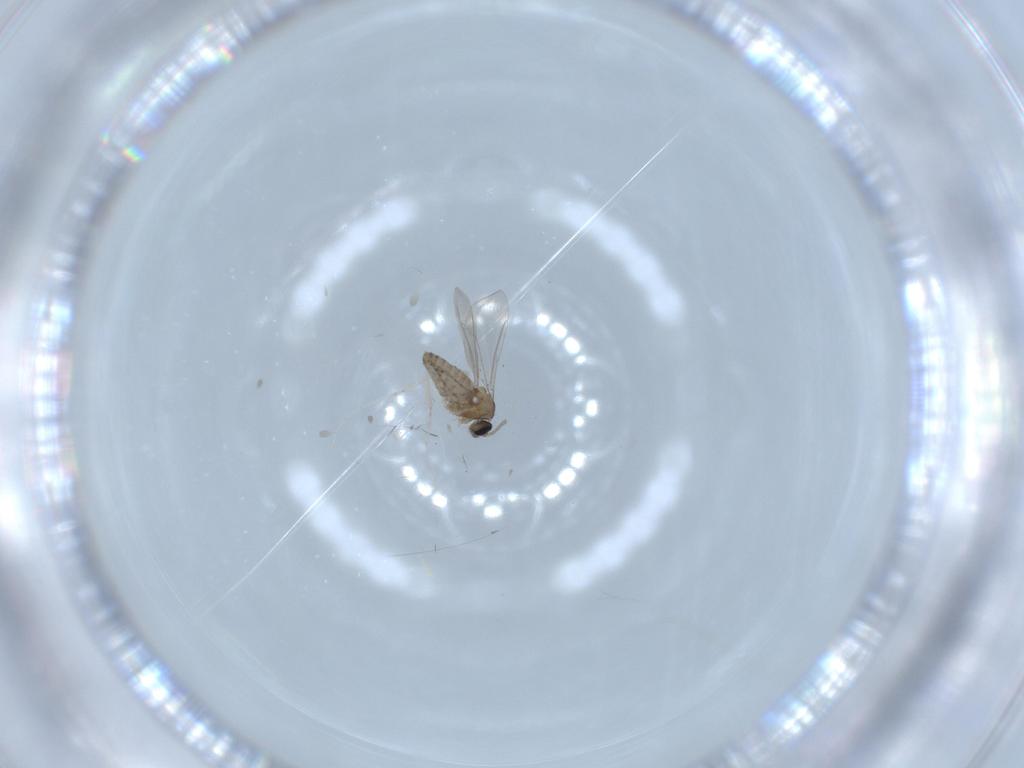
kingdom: Animalia
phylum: Arthropoda
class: Insecta
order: Diptera
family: Cecidomyiidae
